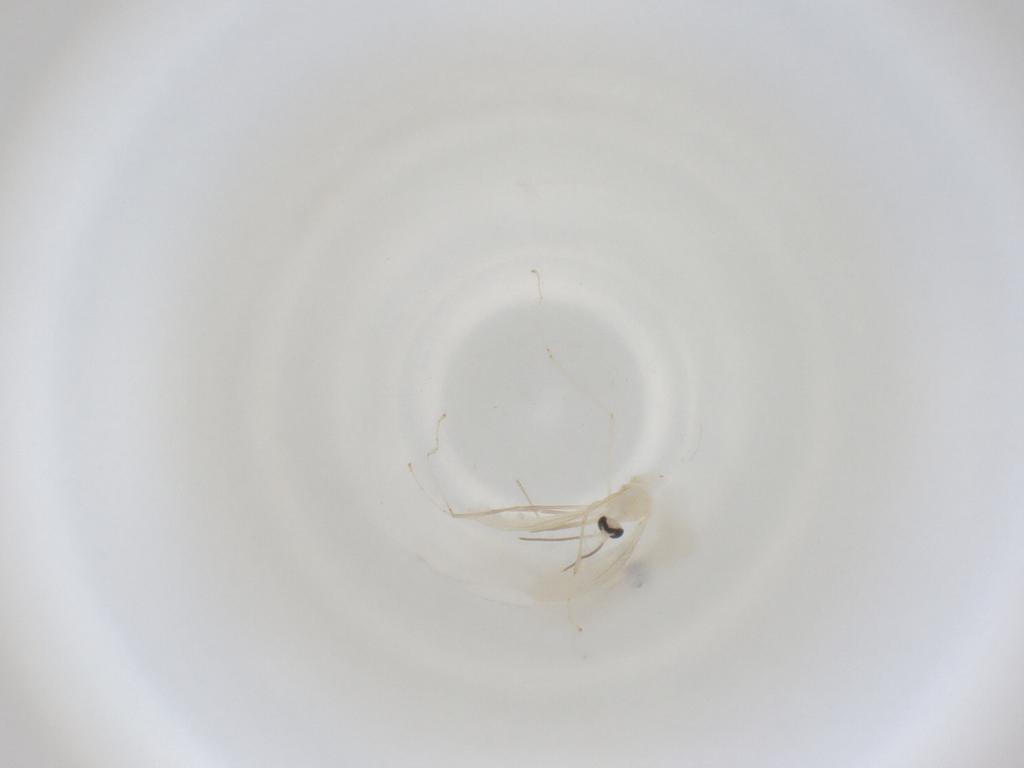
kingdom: Animalia
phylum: Arthropoda
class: Insecta
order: Diptera
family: Cecidomyiidae
